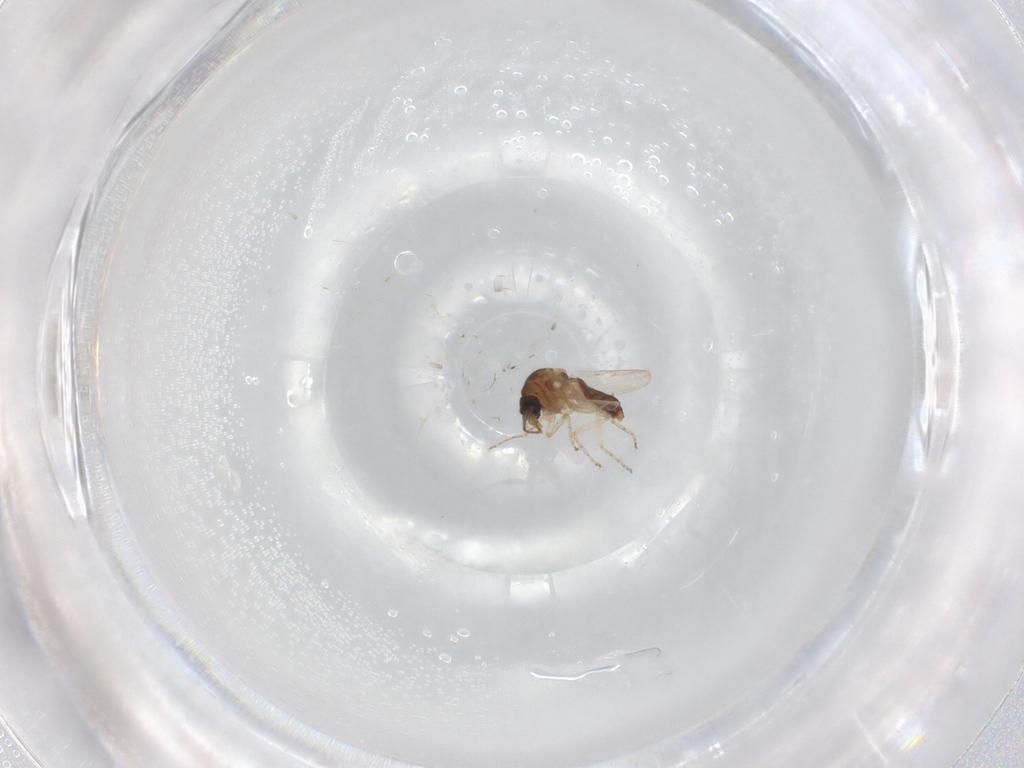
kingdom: Animalia
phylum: Arthropoda
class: Insecta
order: Diptera
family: Ceratopogonidae
